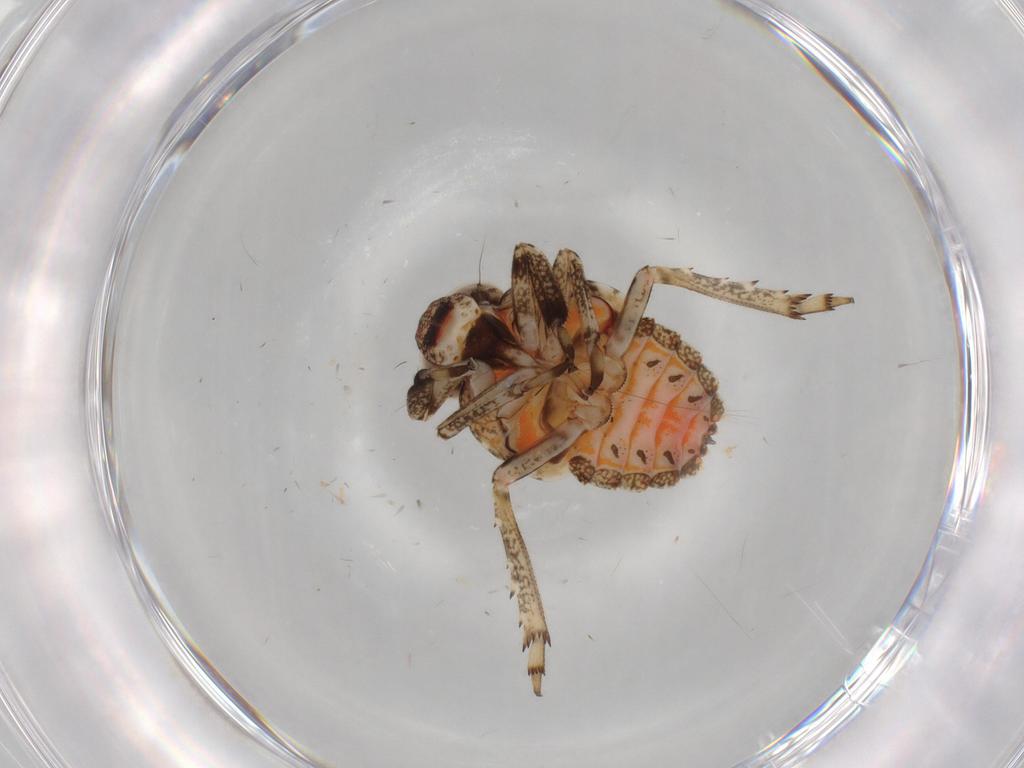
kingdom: Animalia
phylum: Arthropoda
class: Insecta
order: Hemiptera
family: Issidae
